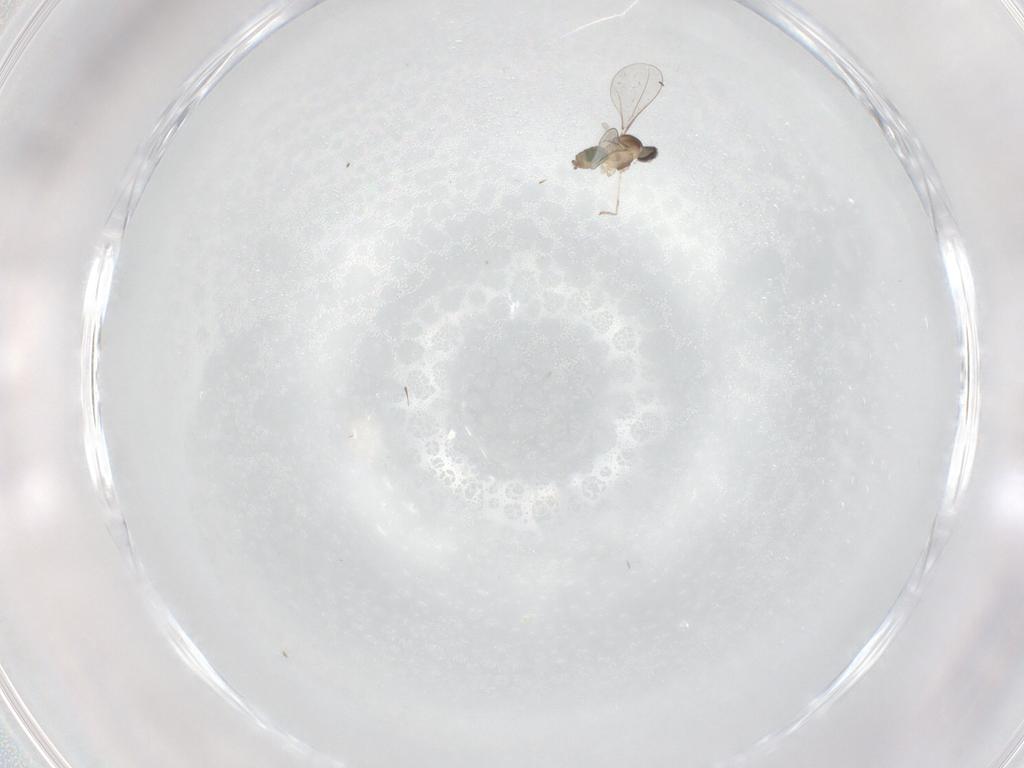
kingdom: Animalia
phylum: Arthropoda
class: Insecta
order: Diptera
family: Cecidomyiidae
